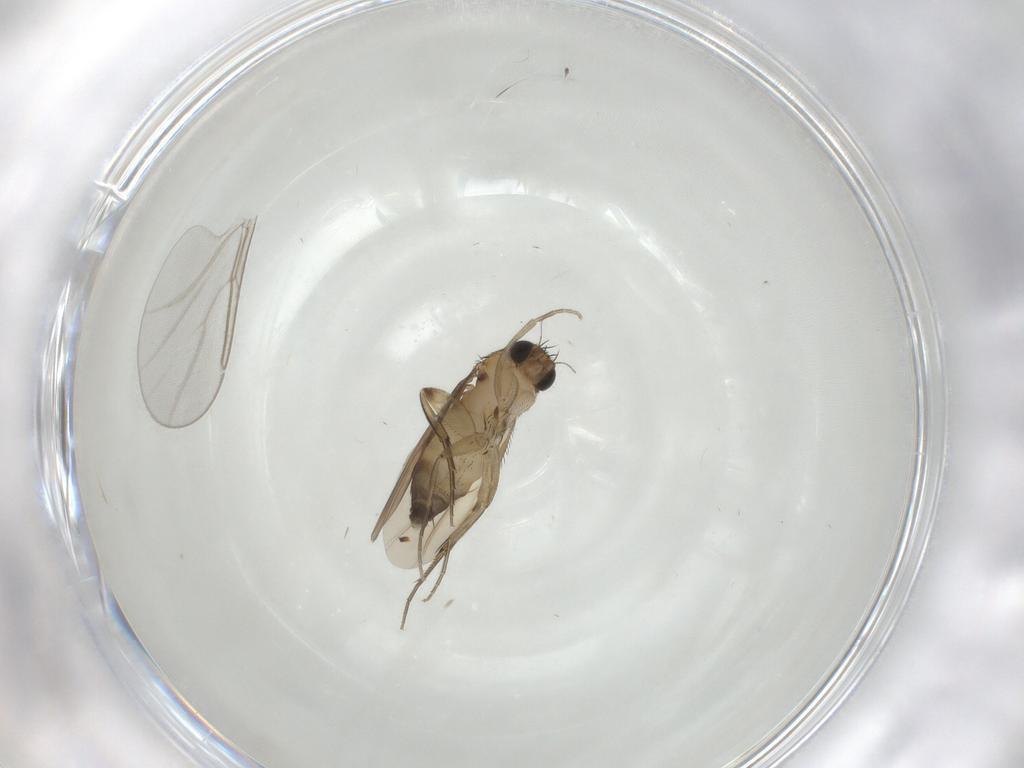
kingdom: Animalia
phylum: Arthropoda
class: Insecta
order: Diptera
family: Phoridae
